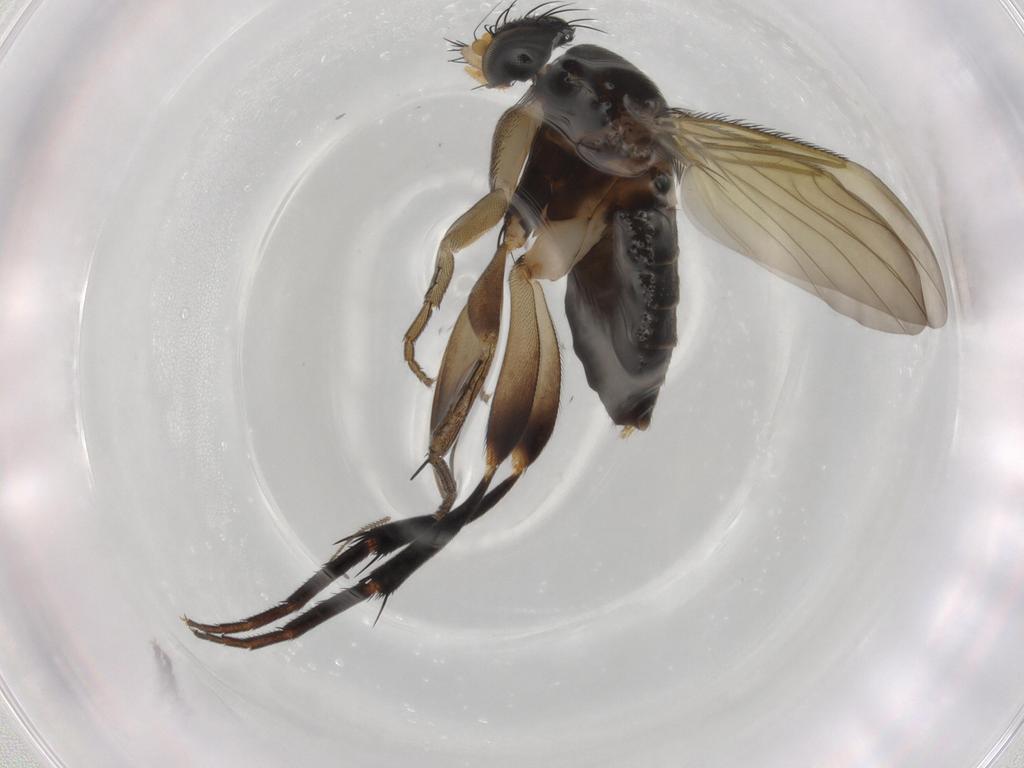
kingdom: Animalia
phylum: Arthropoda
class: Insecta
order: Diptera
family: Phoridae
